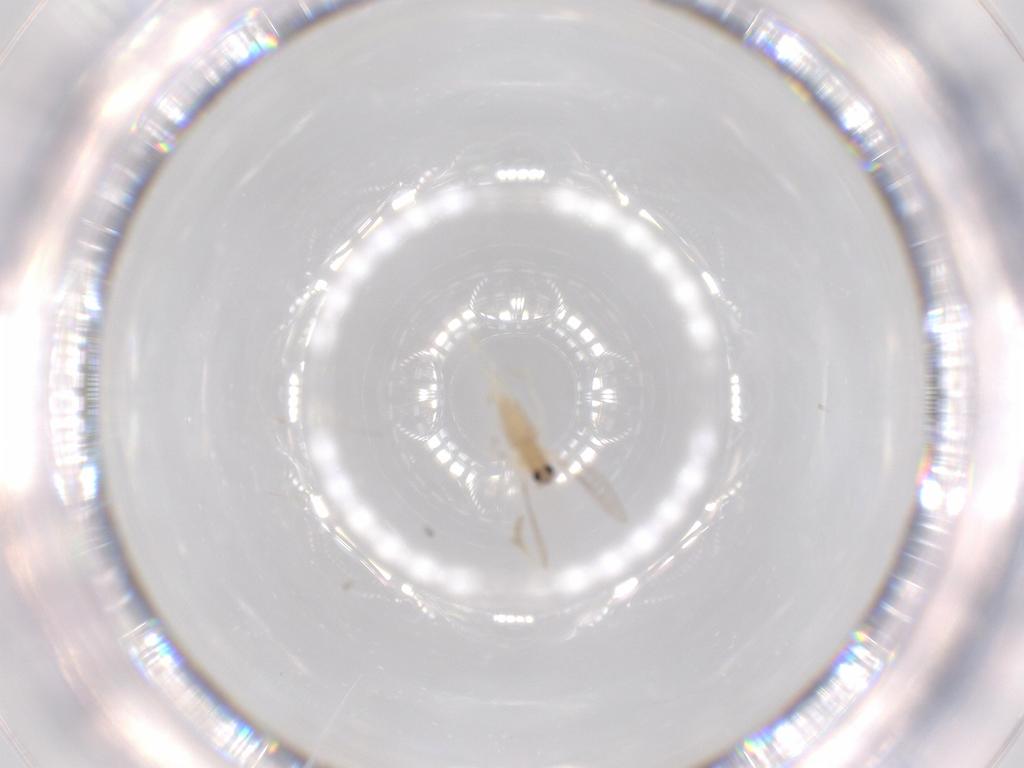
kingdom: Animalia
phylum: Arthropoda
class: Insecta
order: Diptera
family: Cecidomyiidae
